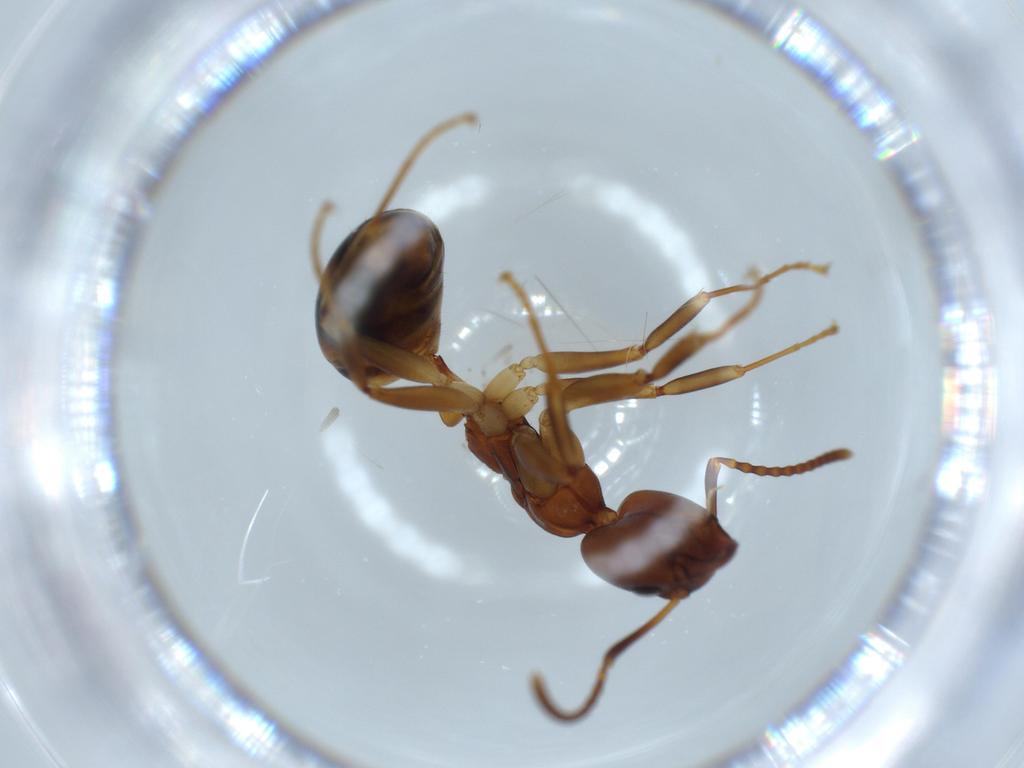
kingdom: Animalia
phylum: Arthropoda
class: Insecta
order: Hymenoptera
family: Formicidae
